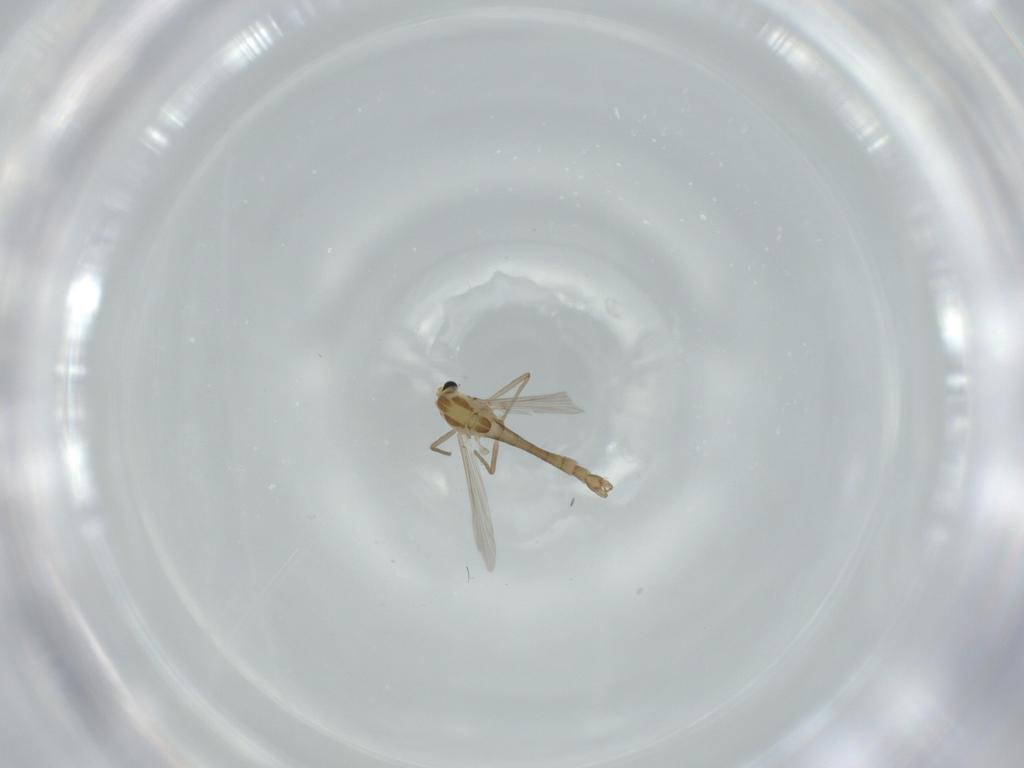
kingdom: Animalia
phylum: Arthropoda
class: Insecta
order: Diptera
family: Chironomidae
